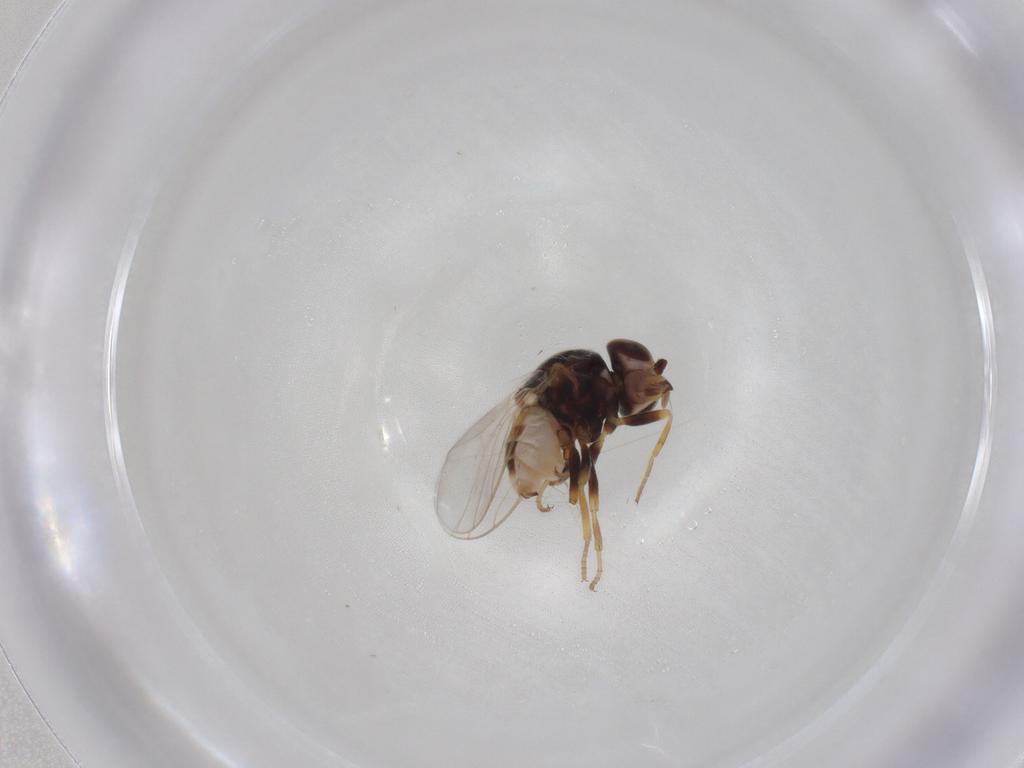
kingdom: Animalia
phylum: Arthropoda
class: Insecta
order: Diptera
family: Chloropidae
